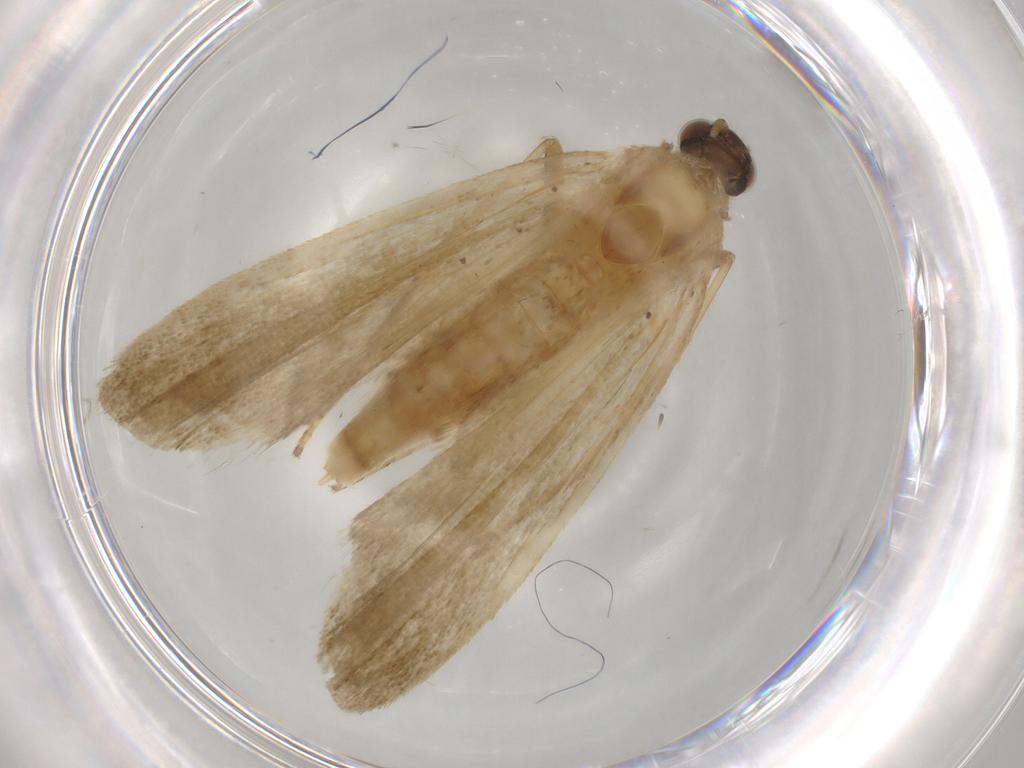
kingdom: Animalia
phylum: Arthropoda
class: Insecta
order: Lepidoptera
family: Noctuidae
